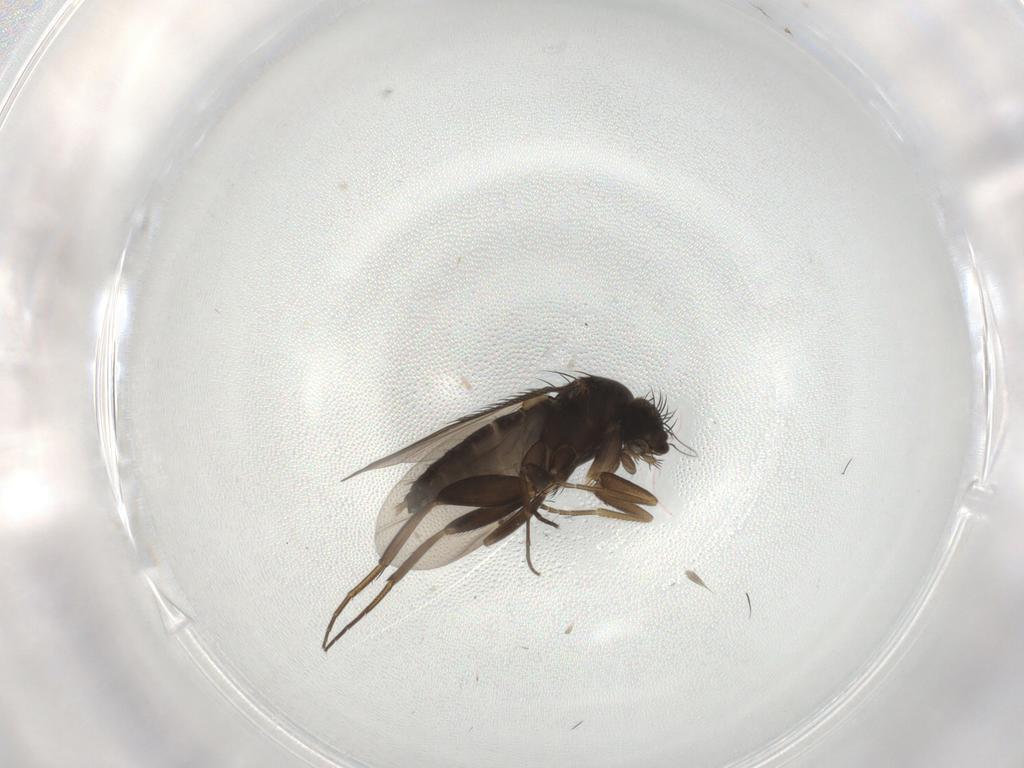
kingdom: Animalia
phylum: Arthropoda
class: Insecta
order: Diptera
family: Phoridae
